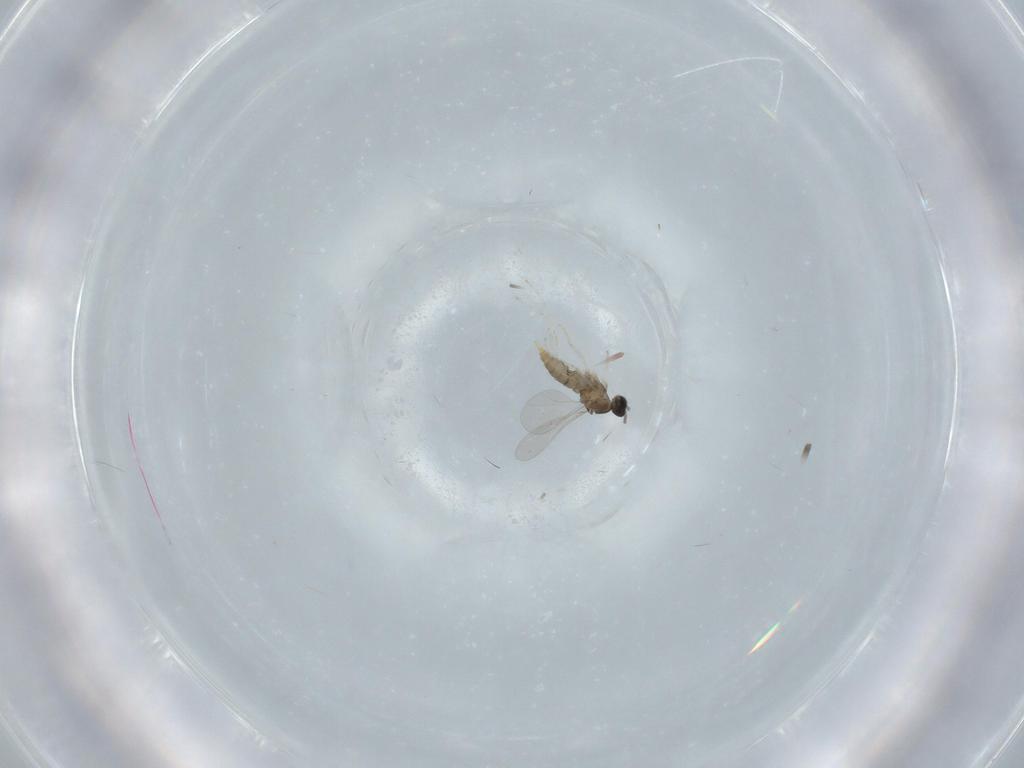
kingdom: Animalia
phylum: Arthropoda
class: Insecta
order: Diptera
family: Cecidomyiidae
